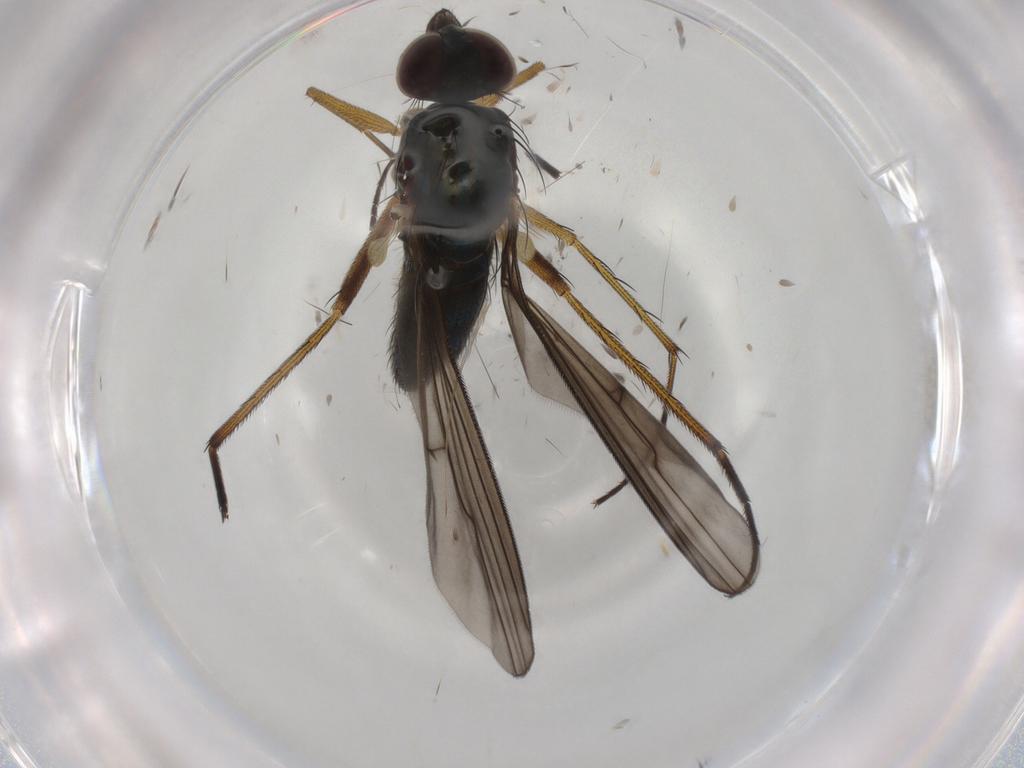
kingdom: Animalia
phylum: Arthropoda
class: Insecta
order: Diptera
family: Dolichopodidae
